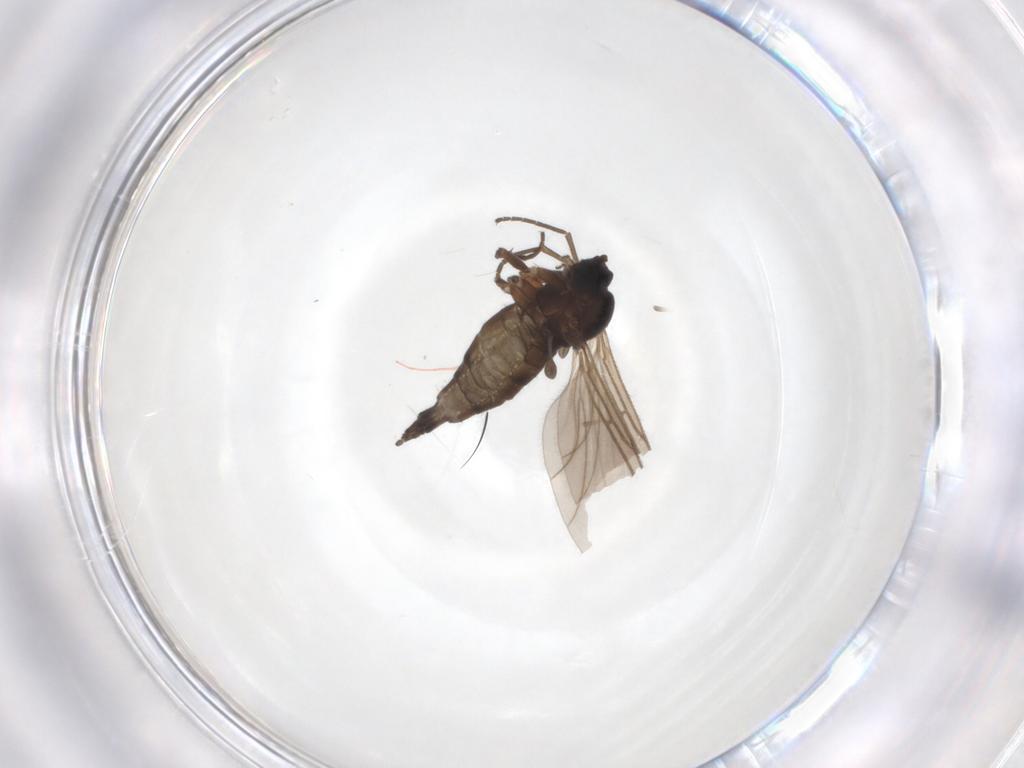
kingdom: Animalia
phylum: Arthropoda
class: Insecta
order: Diptera
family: Sciaridae
